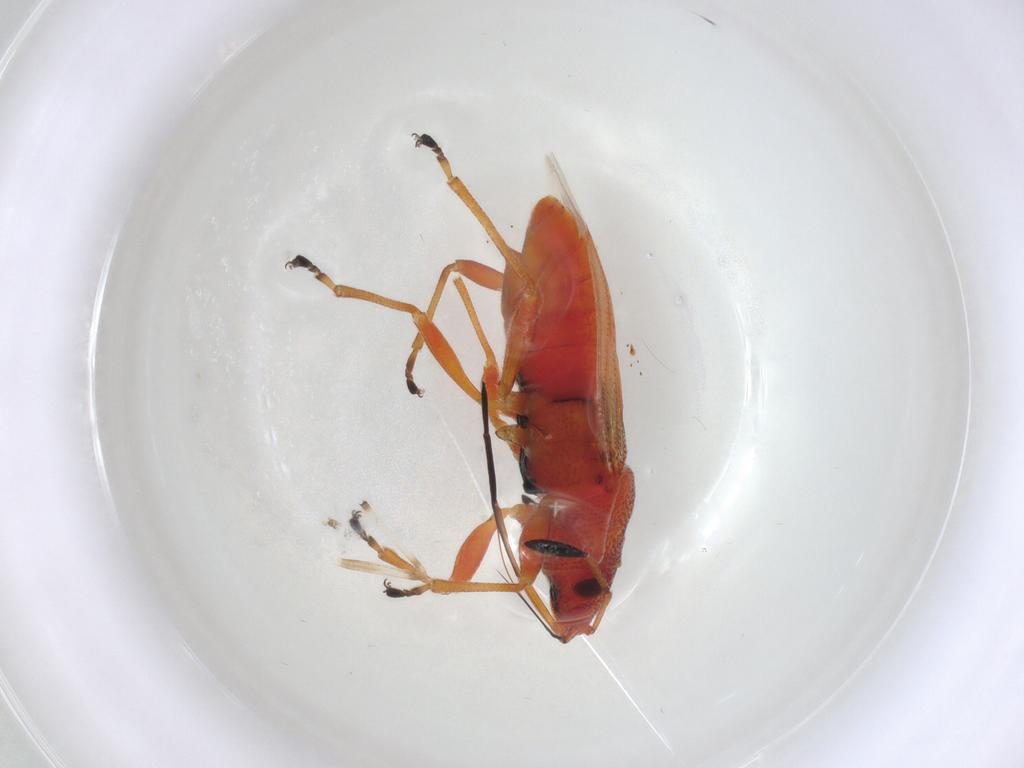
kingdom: Animalia
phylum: Arthropoda
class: Insecta
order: Hemiptera
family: Lygaeidae
